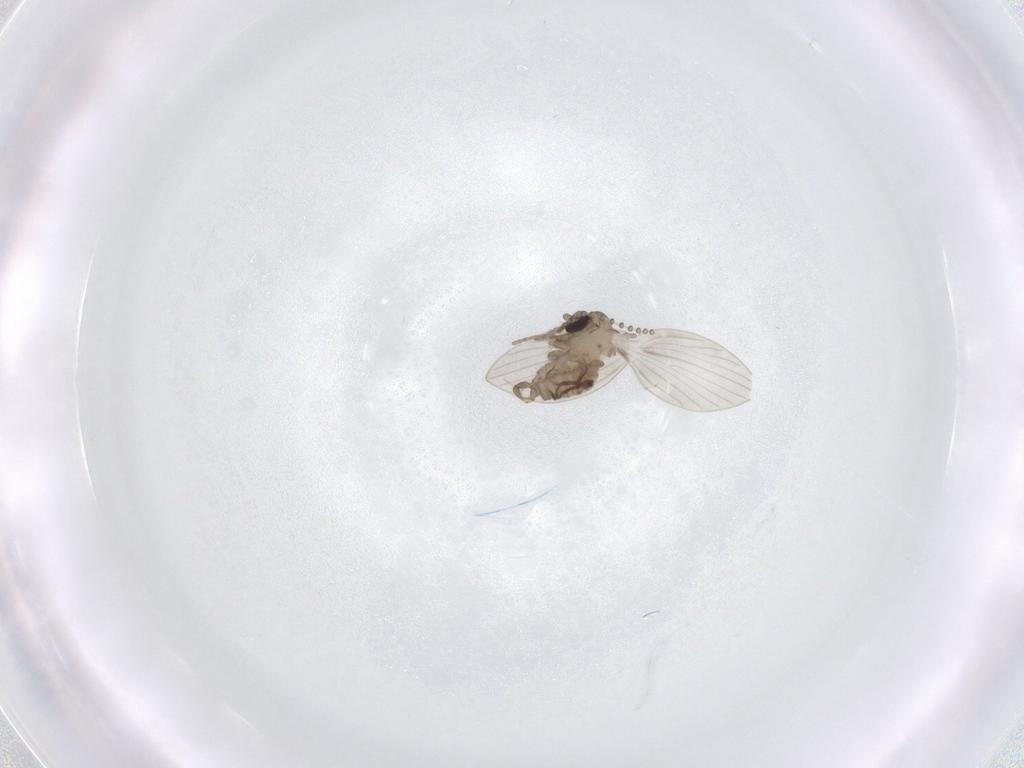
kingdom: Animalia
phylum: Arthropoda
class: Insecta
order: Diptera
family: Psychodidae
